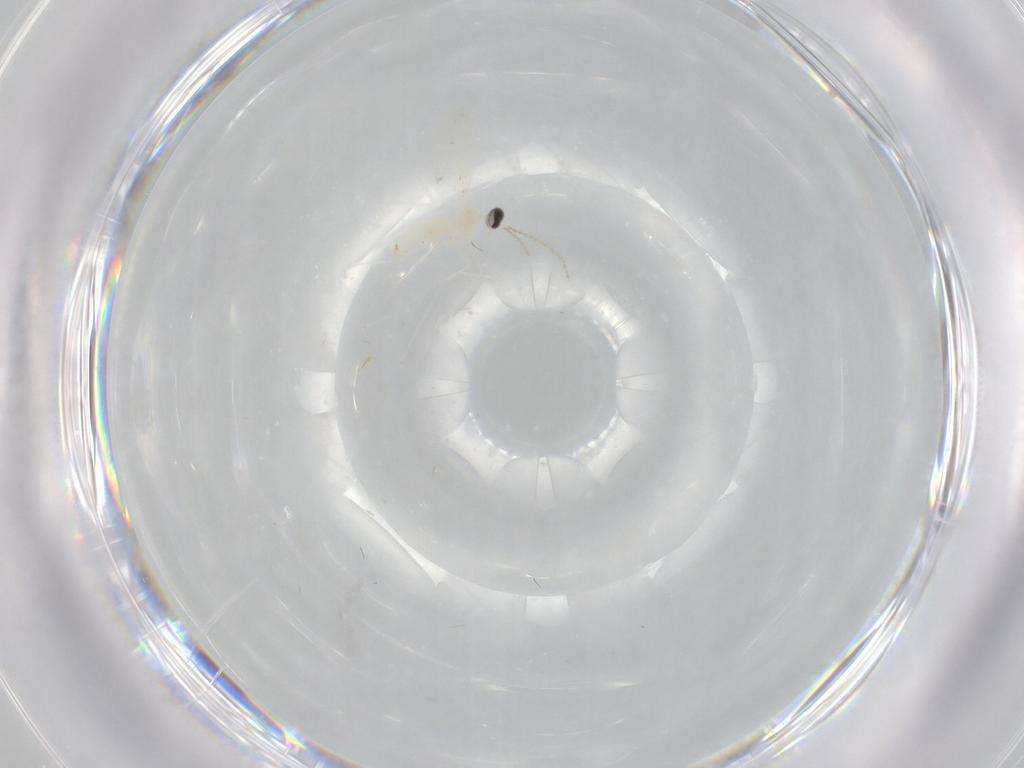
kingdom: Animalia
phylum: Arthropoda
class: Insecta
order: Diptera
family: Cecidomyiidae
